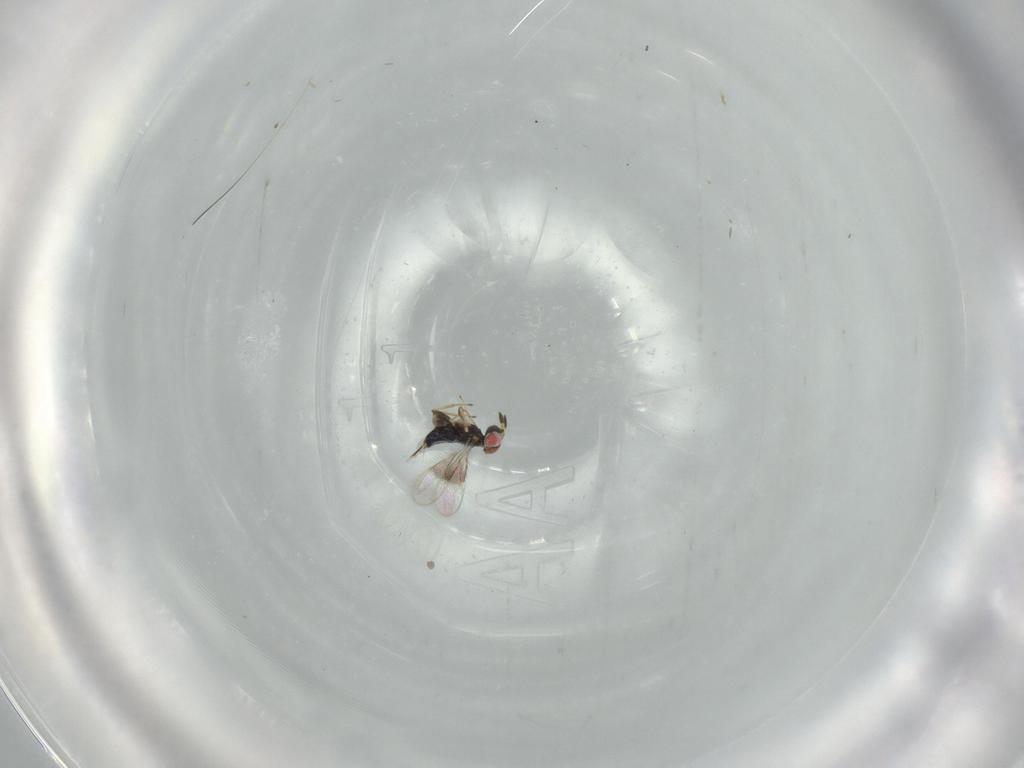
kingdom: Animalia
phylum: Arthropoda
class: Insecta
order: Hymenoptera
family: Azotidae
